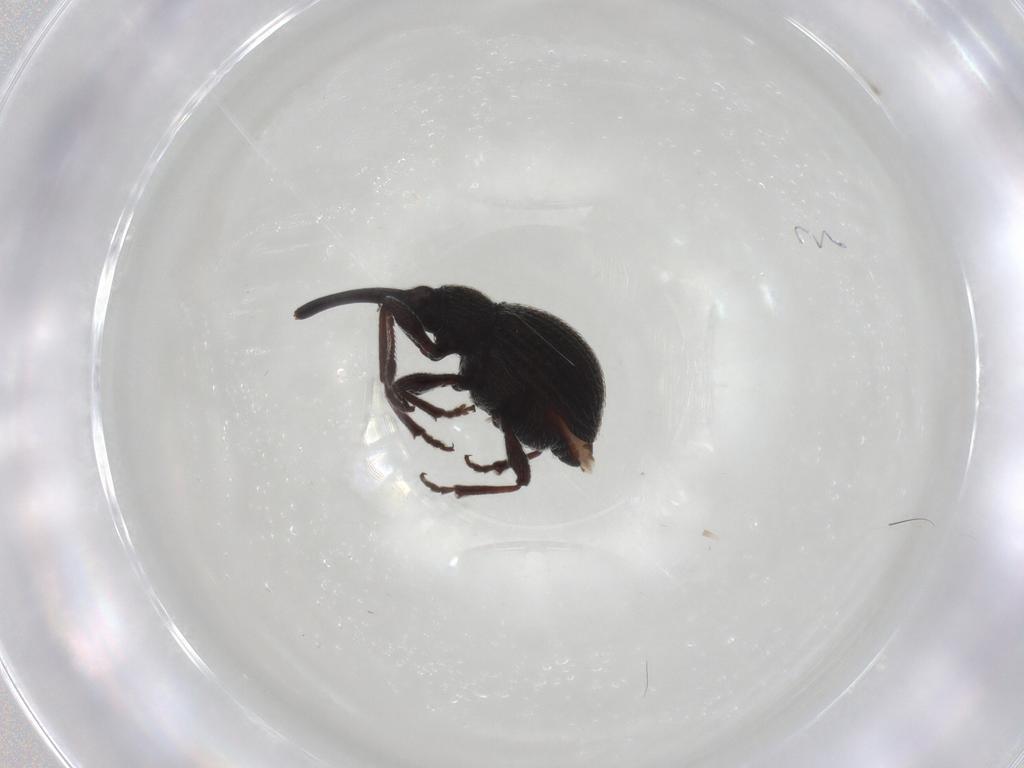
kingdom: Animalia
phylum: Arthropoda
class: Insecta
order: Coleoptera
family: Brentidae
